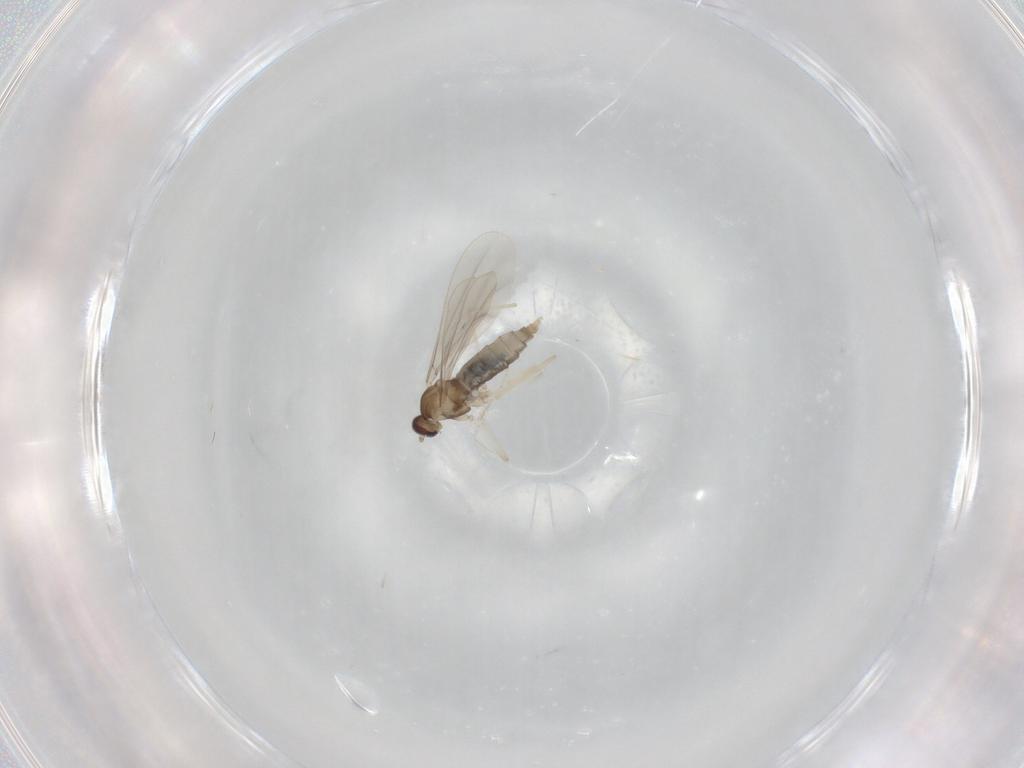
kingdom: Animalia
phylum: Arthropoda
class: Insecta
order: Diptera
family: Cecidomyiidae
